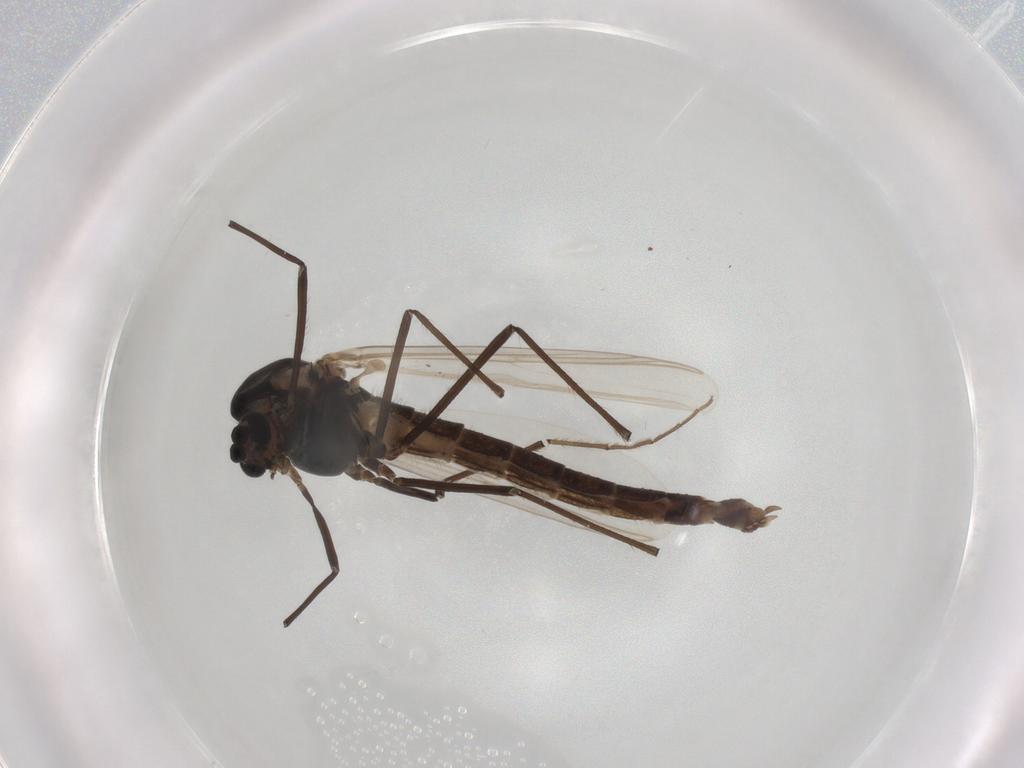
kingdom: Animalia
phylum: Arthropoda
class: Insecta
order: Diptera
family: Chironomidae
